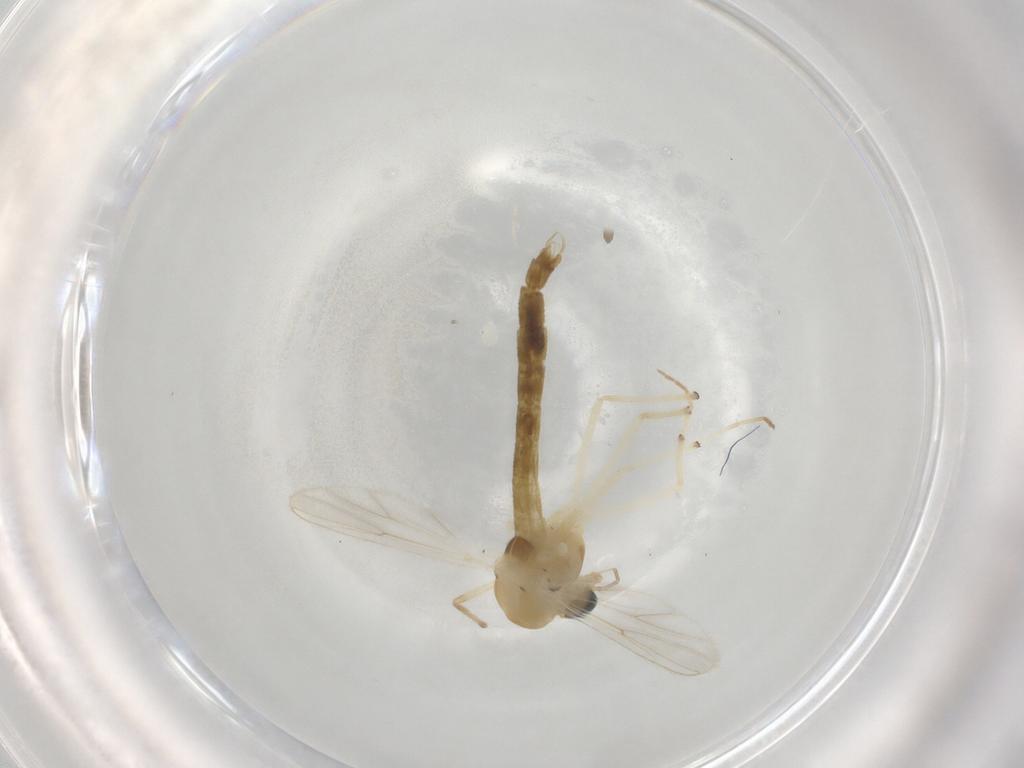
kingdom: Animalia
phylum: Arthropoda
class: Insecta
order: Diptera
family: Chironomidae
